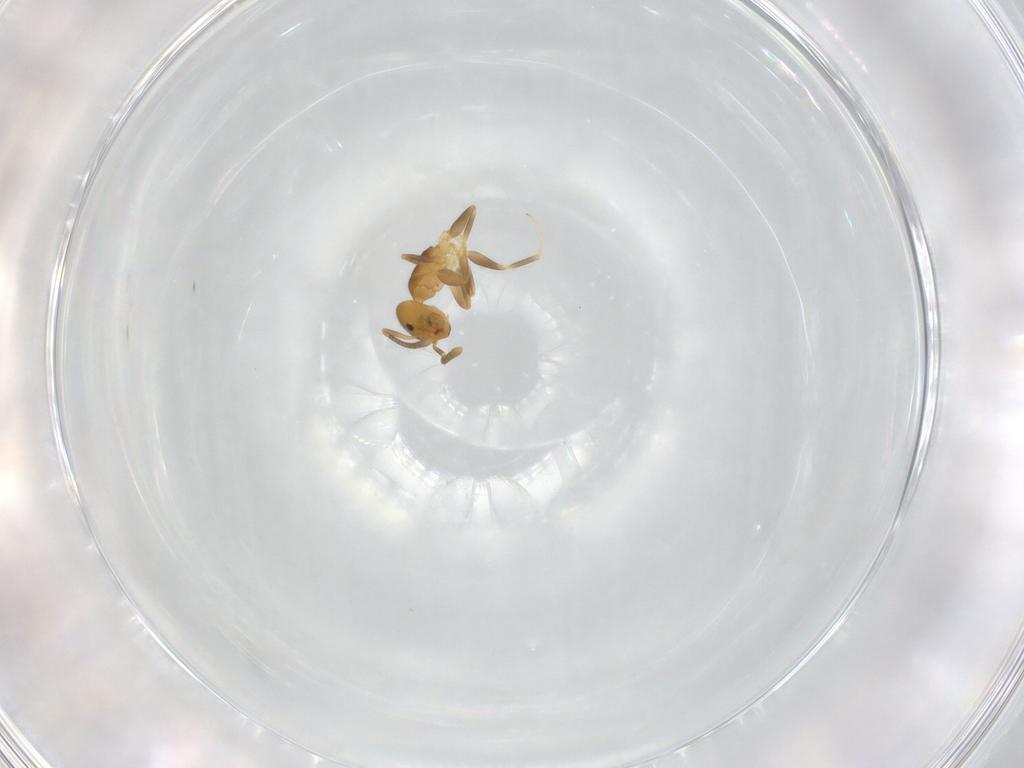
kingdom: Animalia
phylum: Arthropoda
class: Insecta
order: Hymenoptera
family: Formicidae
